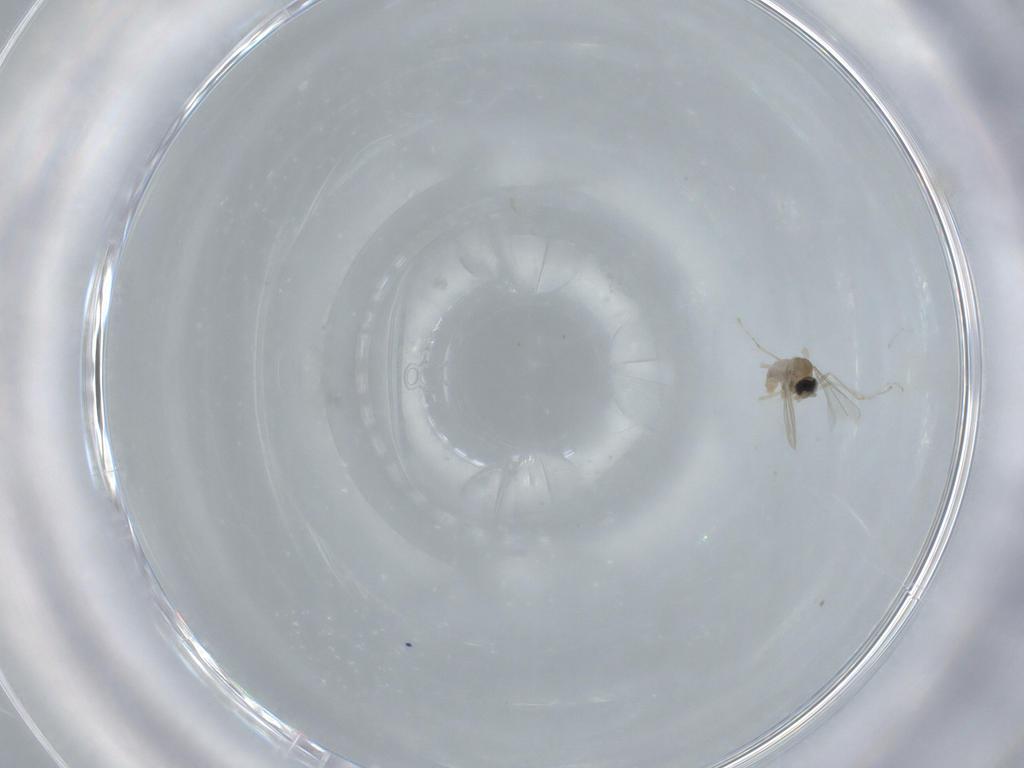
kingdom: Animalia
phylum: Arthropoda
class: Insecta
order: Diptera
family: Cecidomyiidae
